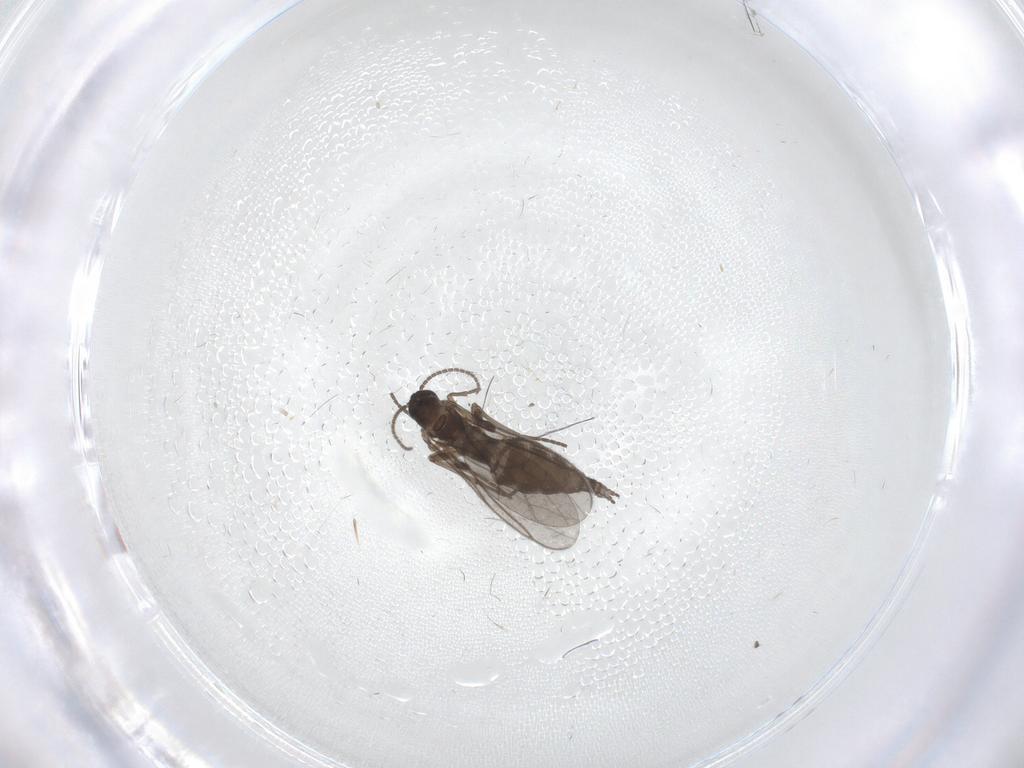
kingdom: Animalia
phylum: Arthropoda
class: Insecta
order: Diptera
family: Sciaridae
